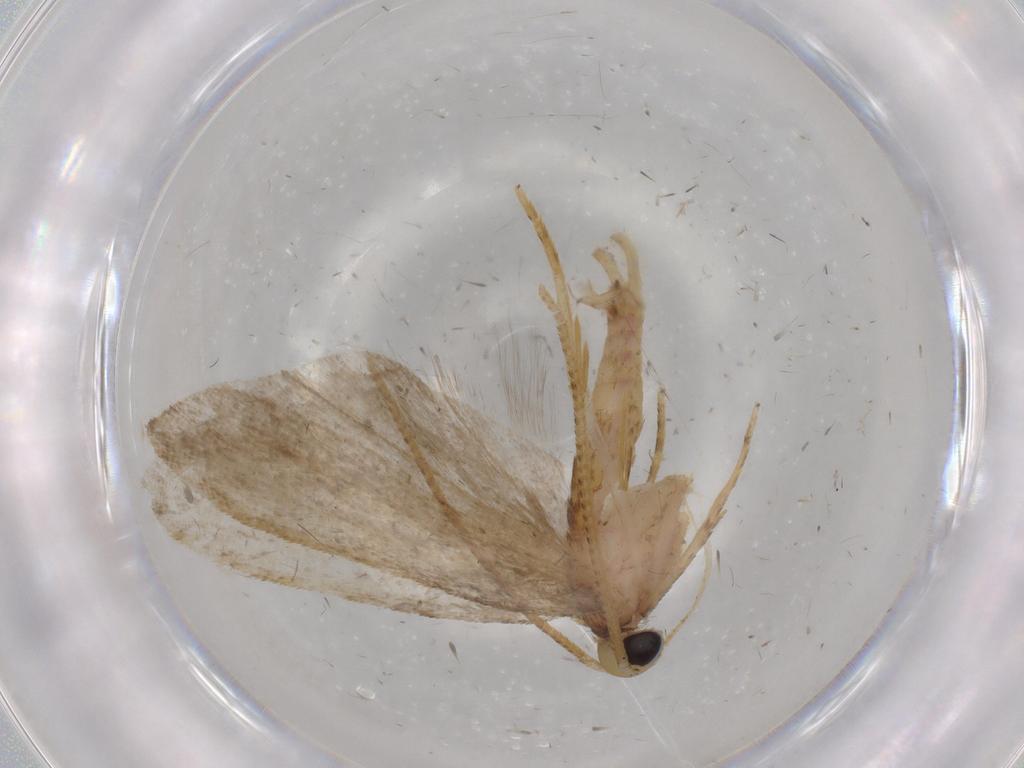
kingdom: Animalia
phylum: Arthropoda
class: Insecta
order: Lepidoptera
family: Autostichidae
